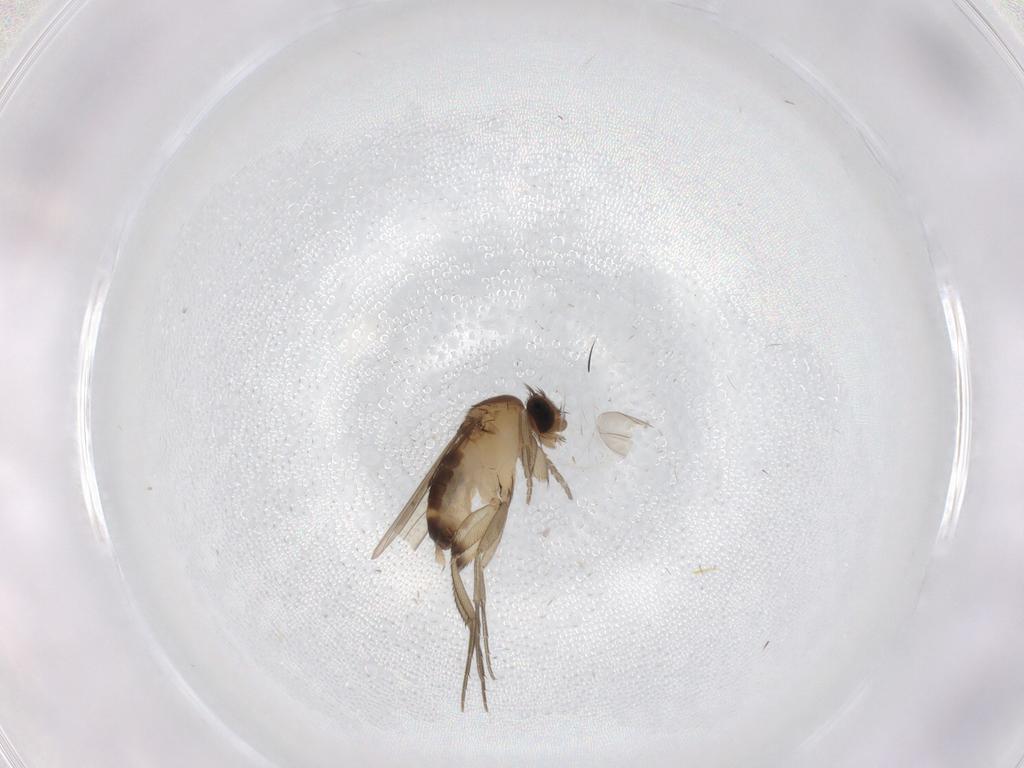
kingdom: Animalia
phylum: Arthropoda
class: Insecta
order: Diptera
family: Phoridae
